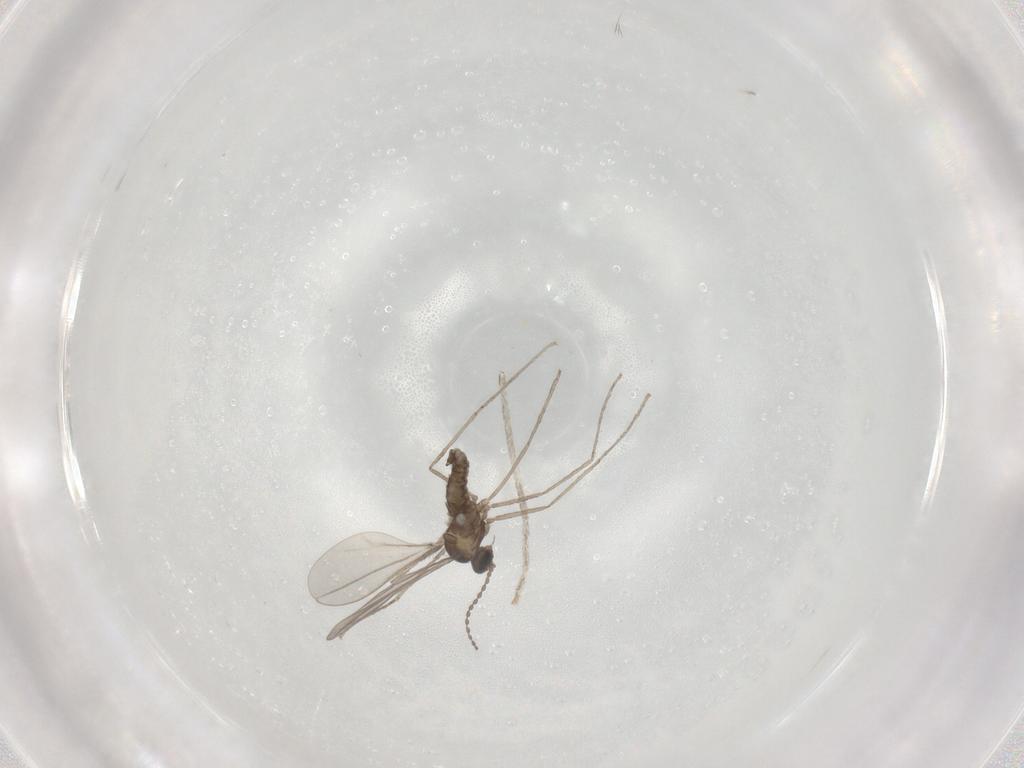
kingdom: Animalia
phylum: Arthropoda
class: Insecta
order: Diptera
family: Cecidomyiidae
